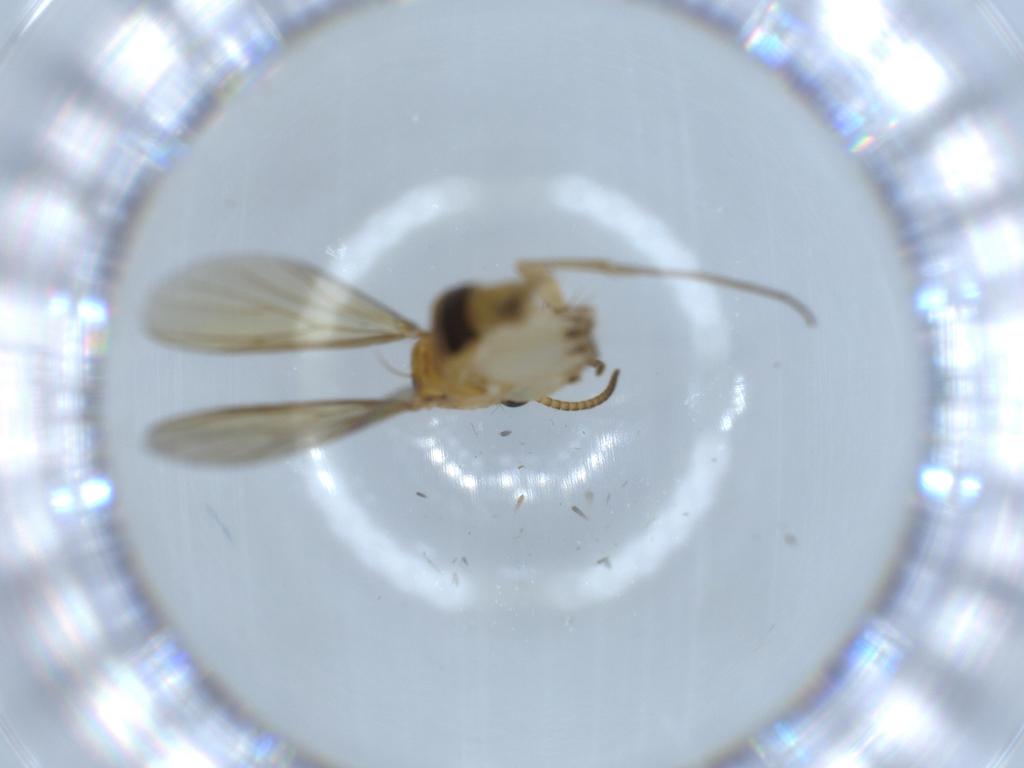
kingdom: Animalia
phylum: Arthropoda
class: Insecta
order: Diptera
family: Mycetophilidae
